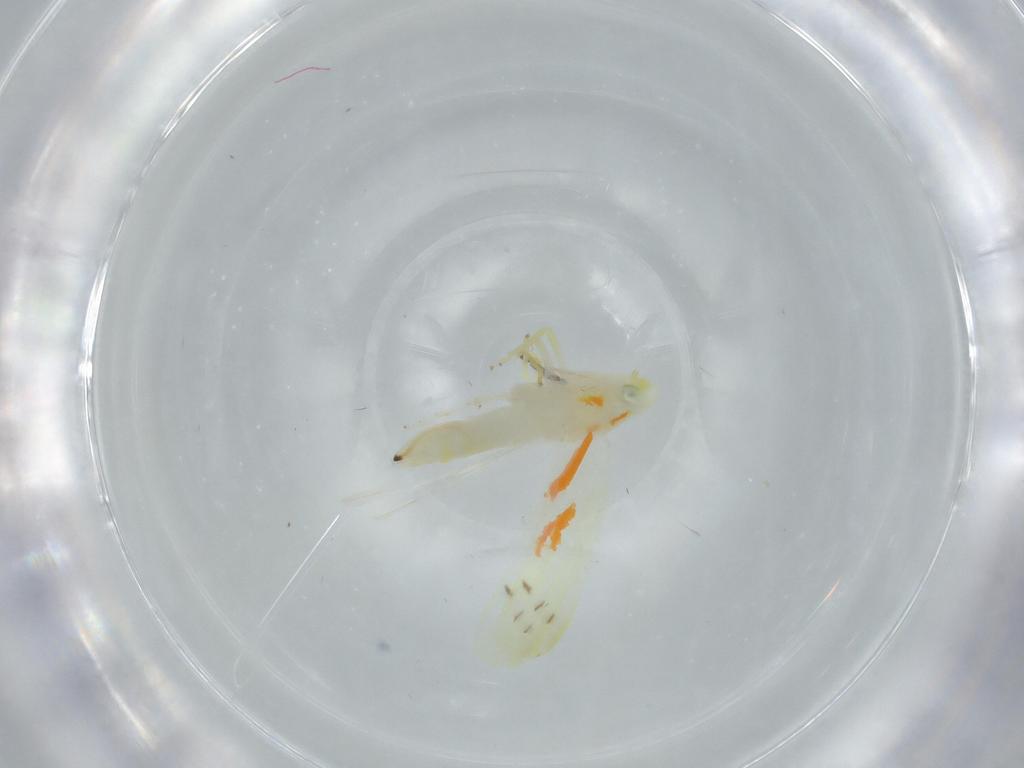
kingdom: Animalia
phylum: Arthropoda
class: Insecta
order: Hemiptera
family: Cicadellidae
